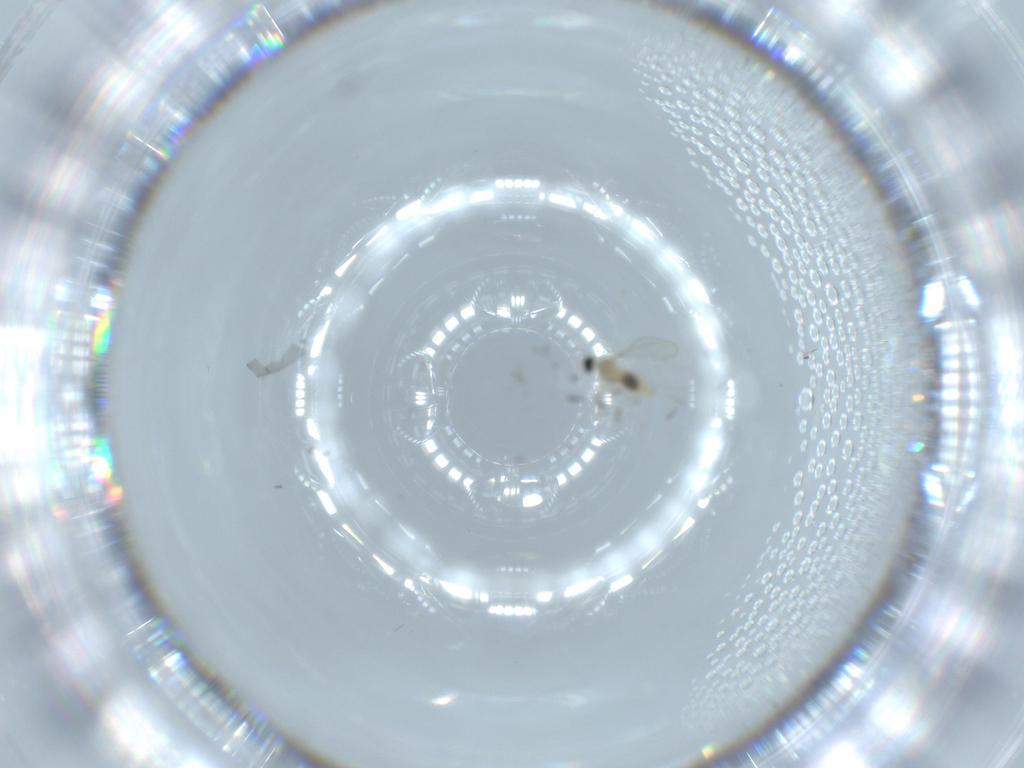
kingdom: Animalia
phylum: Arthropoda
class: Insecta
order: Diptera
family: Cecidomyiidae
